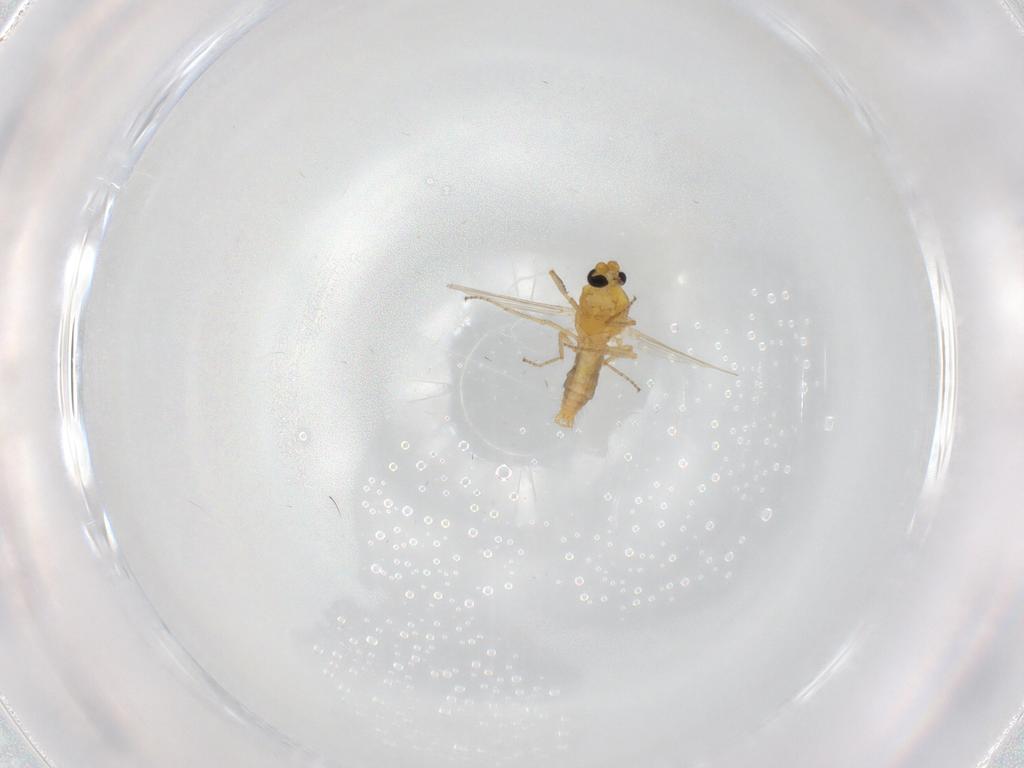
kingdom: Animalia
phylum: Arthropoda
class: Insecta
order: Diptera
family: Ceratopogonidae
